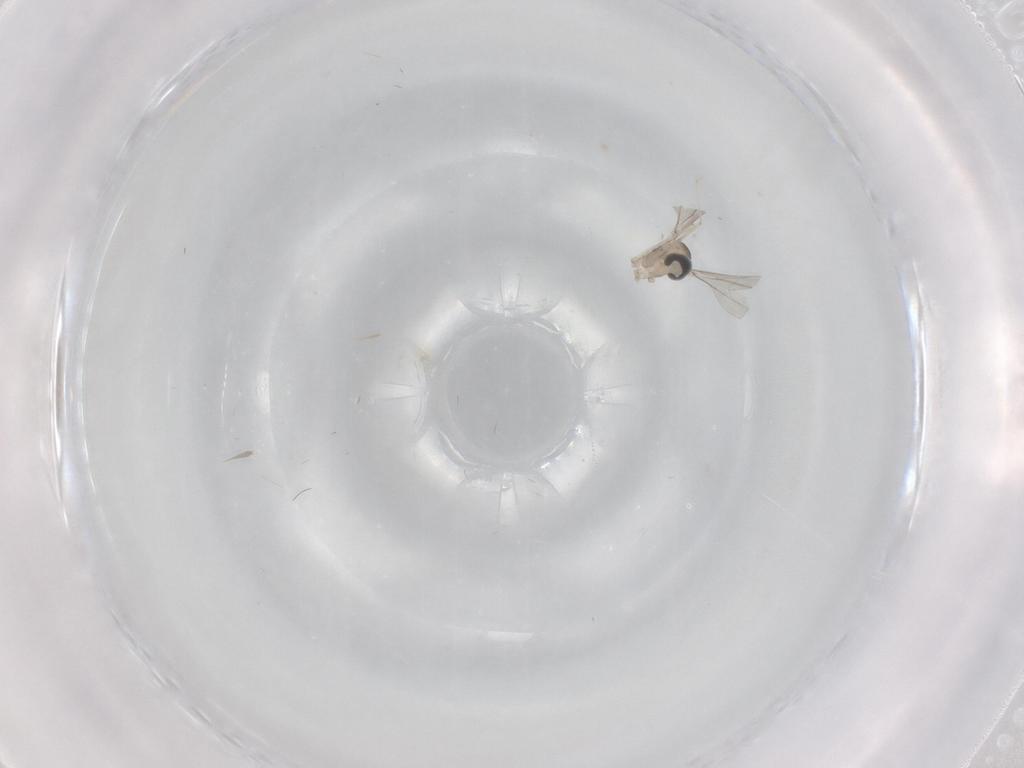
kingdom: Animalia
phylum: Arthropoda
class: Insecta
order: Diptera
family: Cecidomyiidae
